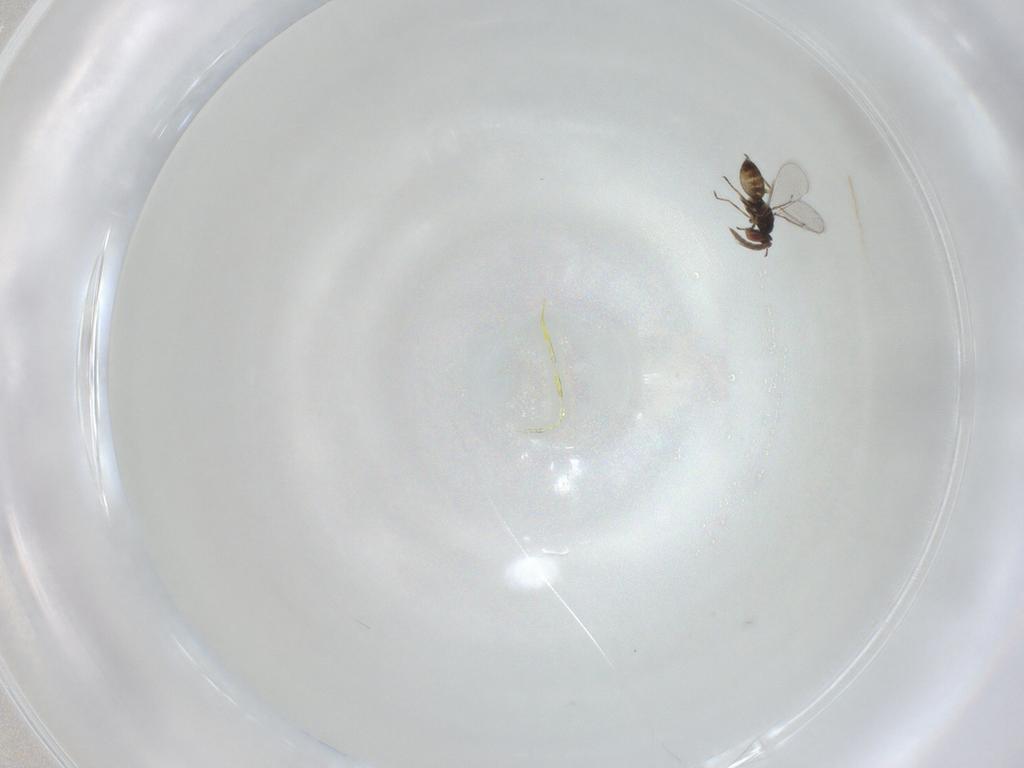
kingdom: Animalia
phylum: Arthropoda
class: Insecta
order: Hymenoptera
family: Eulophidae
